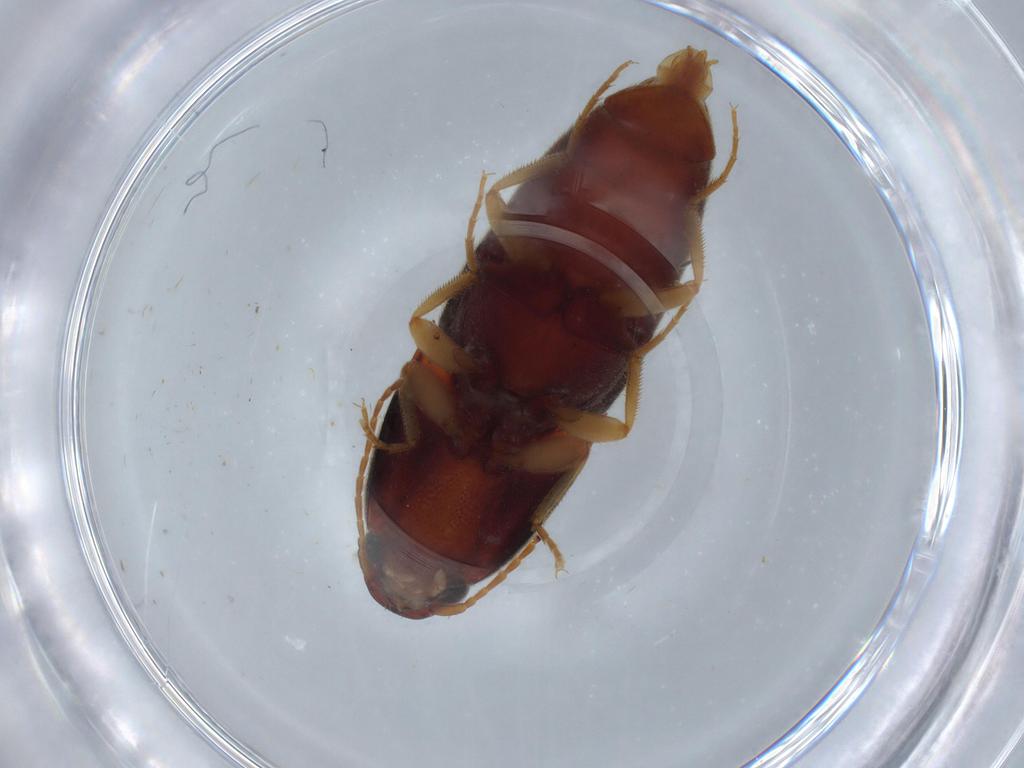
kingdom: Animalia
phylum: Arthropoda
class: Insecta
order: Coleoptera
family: Elateridae
